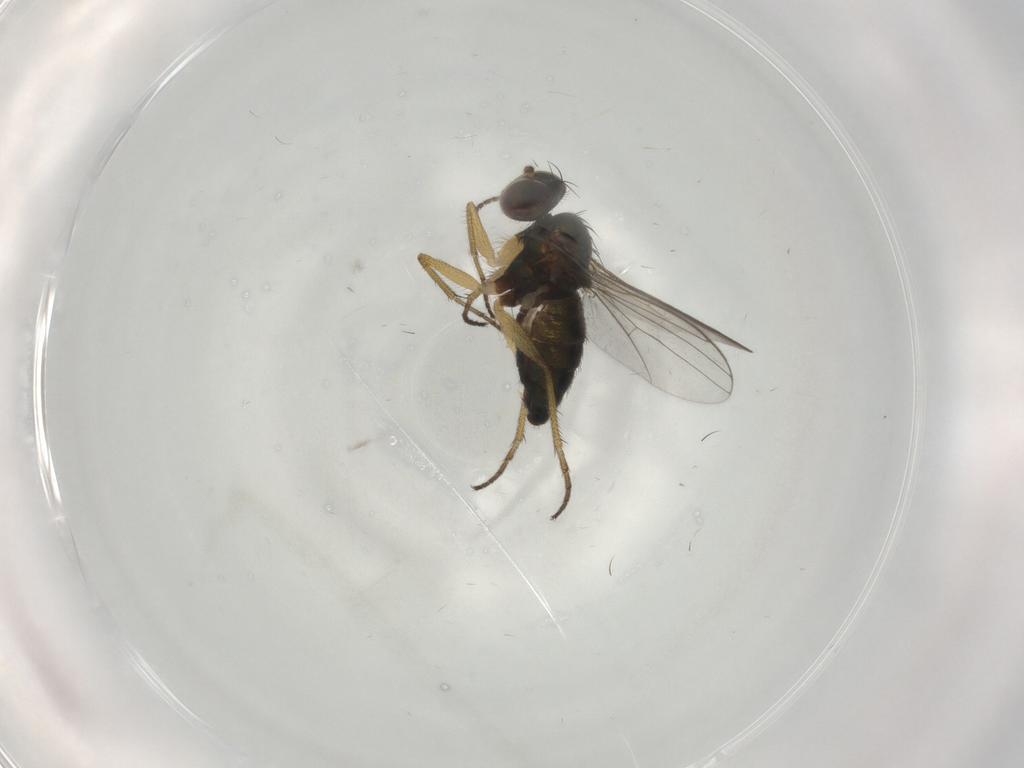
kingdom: Animalia
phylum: Arthropoda
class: Insecta
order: Diptera
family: Dolichopodidae
